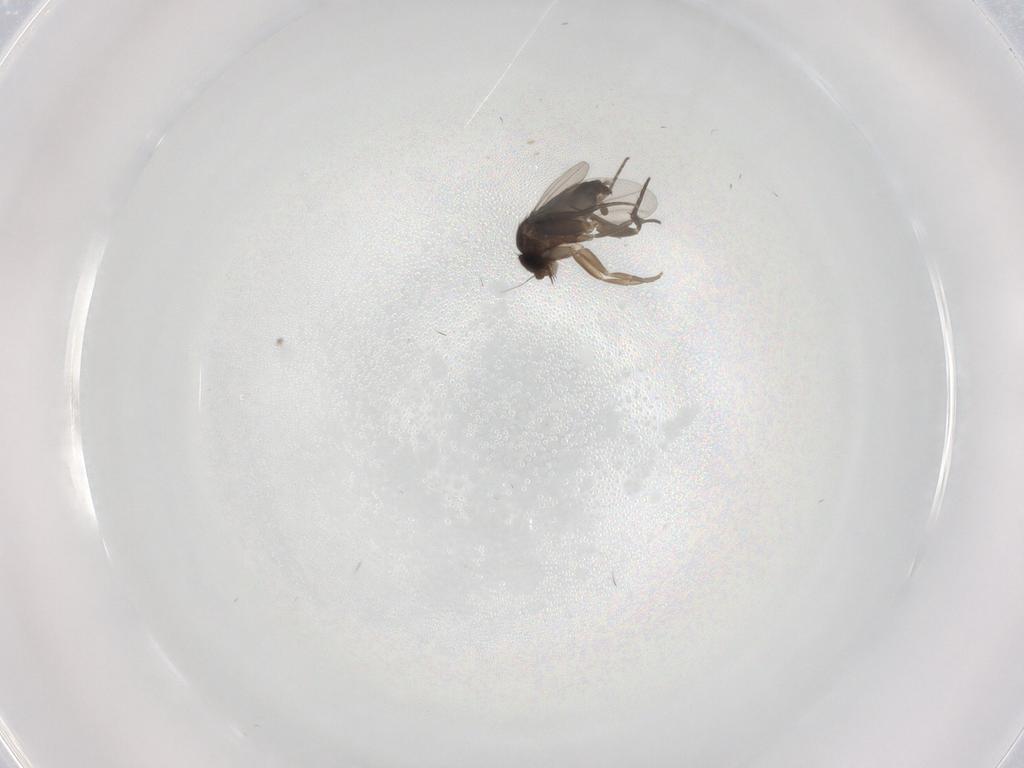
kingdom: Animalia
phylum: Arthropoda
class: Insecta
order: Diptera
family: Phoridae
